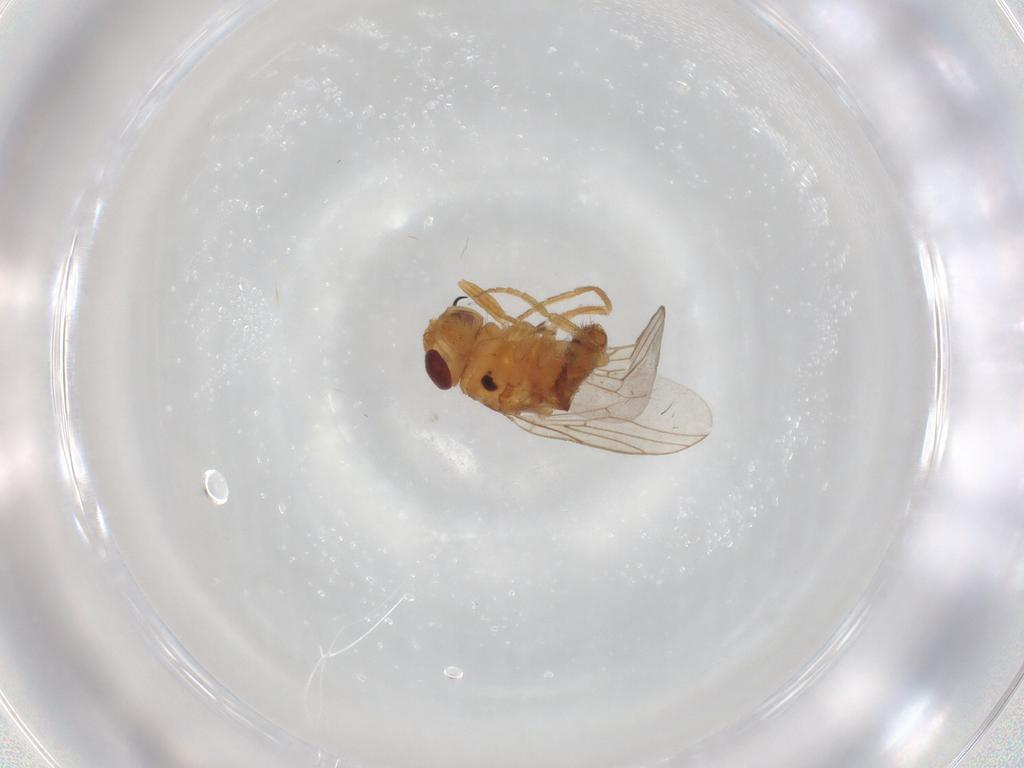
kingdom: Animalia
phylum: Arthropoda
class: Insecta
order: Diptera
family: Chloropidae
